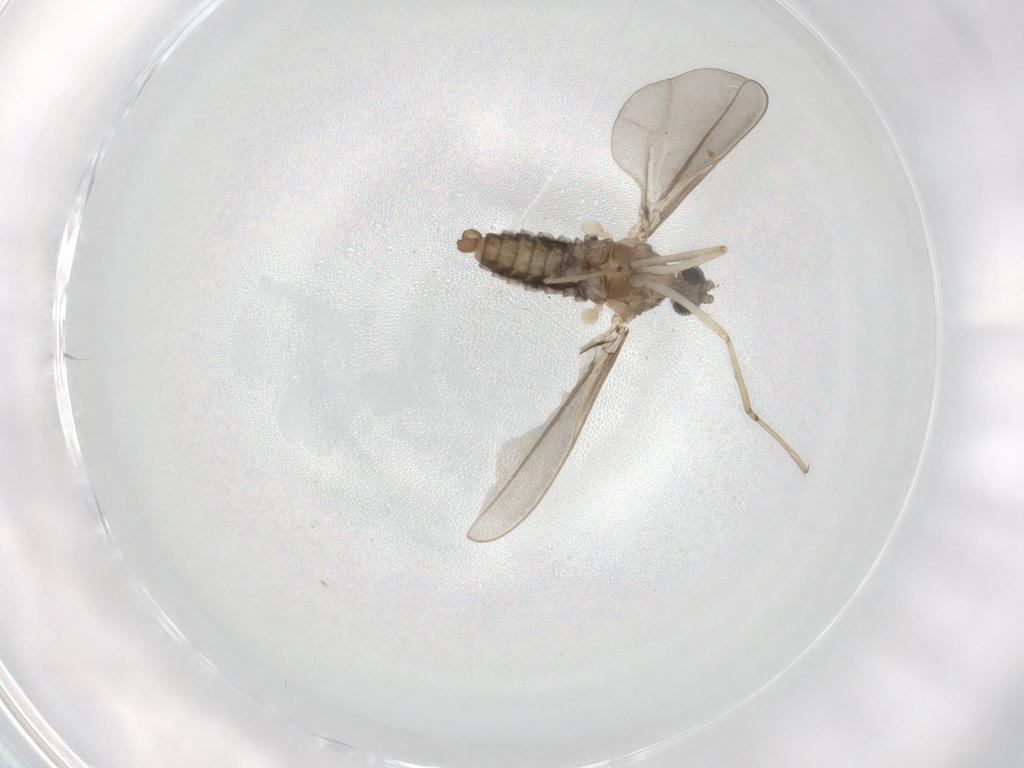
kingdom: Animalia
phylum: Arthropoda
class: Insecta
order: Diptera
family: Cecidomyiidae
